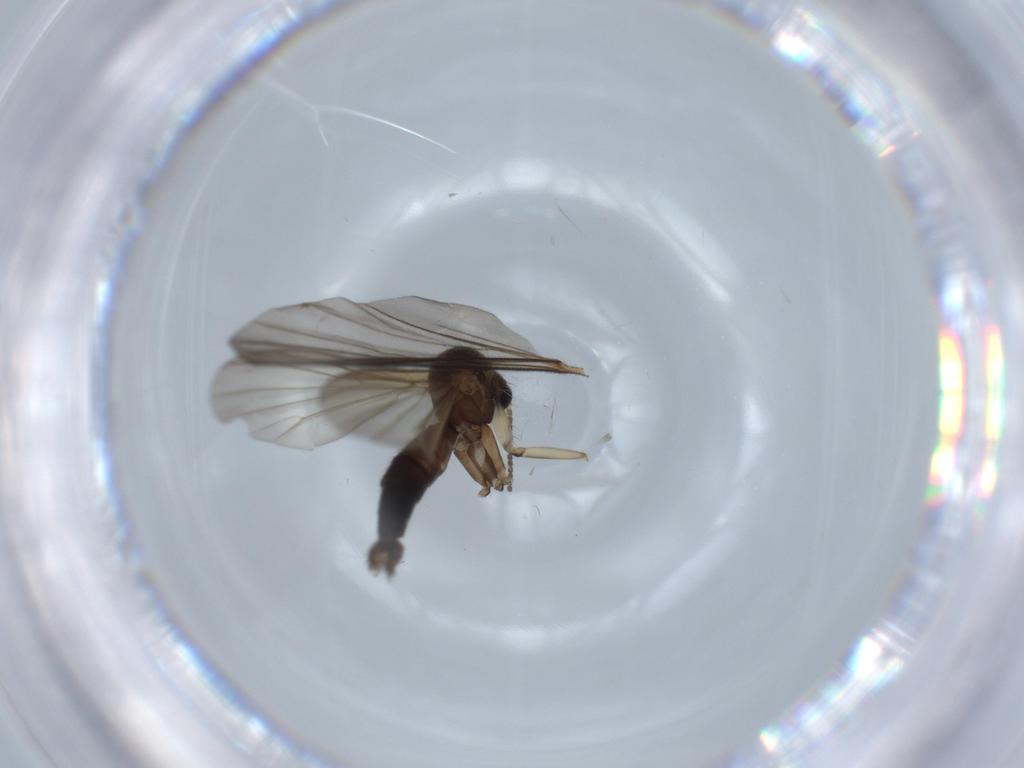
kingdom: Animalia
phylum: Arthropoda
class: Insecta
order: Diptera
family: Mycetophilidae
